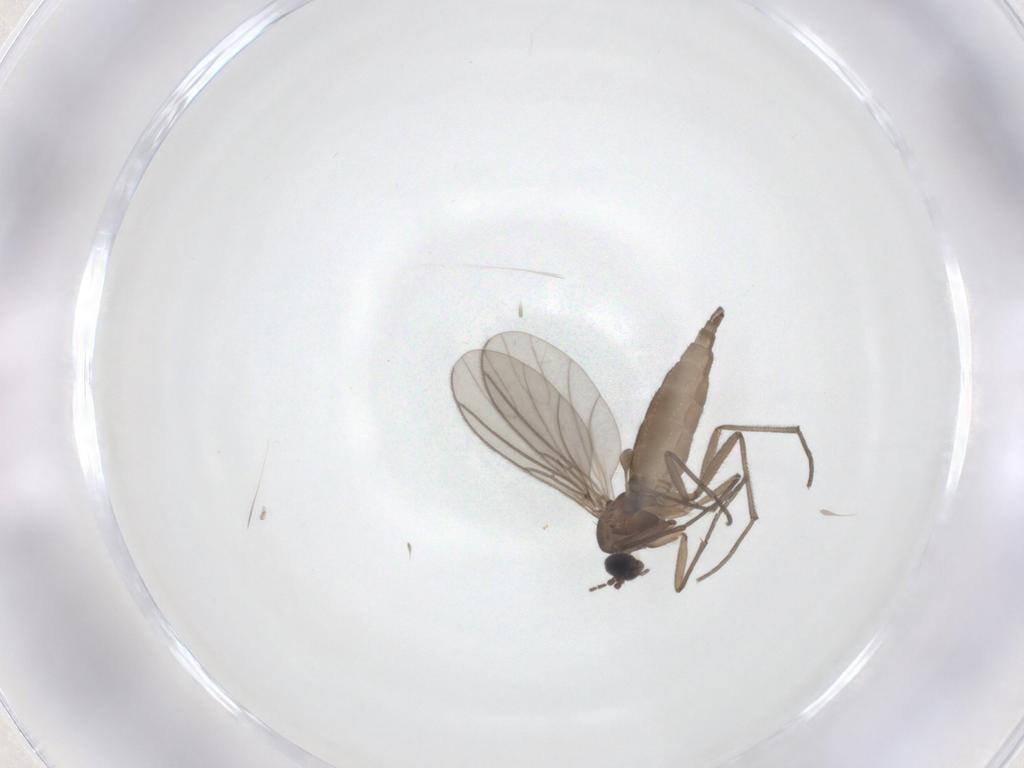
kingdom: Animalia
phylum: Arthropoda
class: Insecta
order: Diptera
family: Sciaridae
